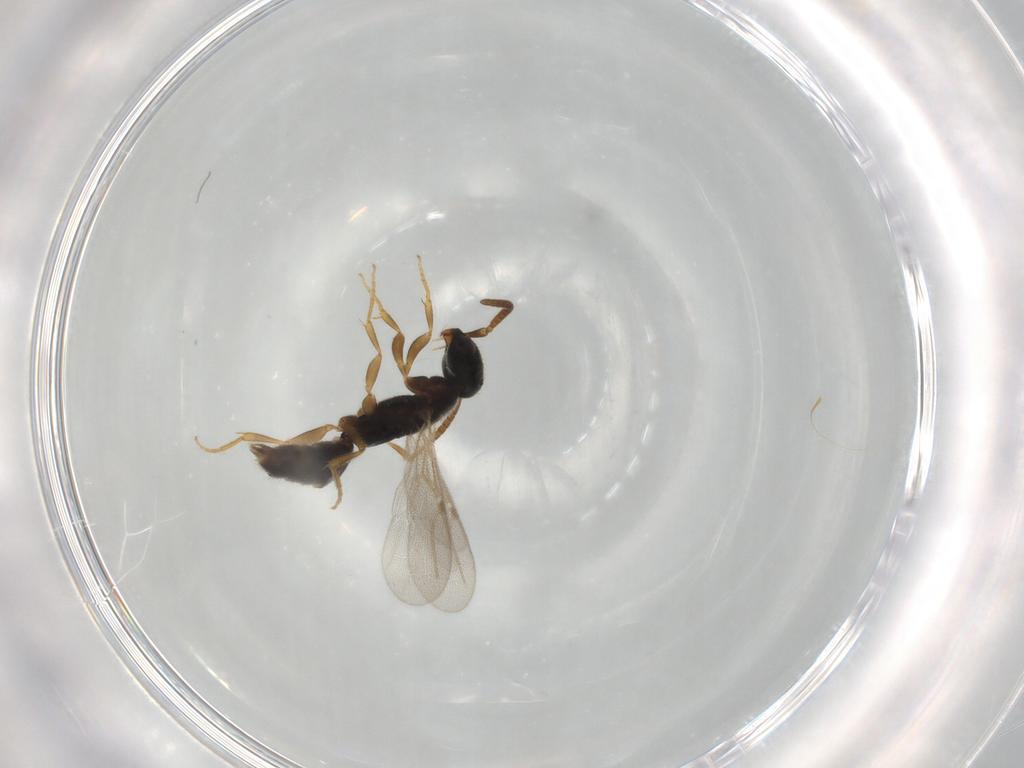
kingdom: Animalia
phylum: Arthropoda
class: Insecta
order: Hymenoptera
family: Bethylidae
